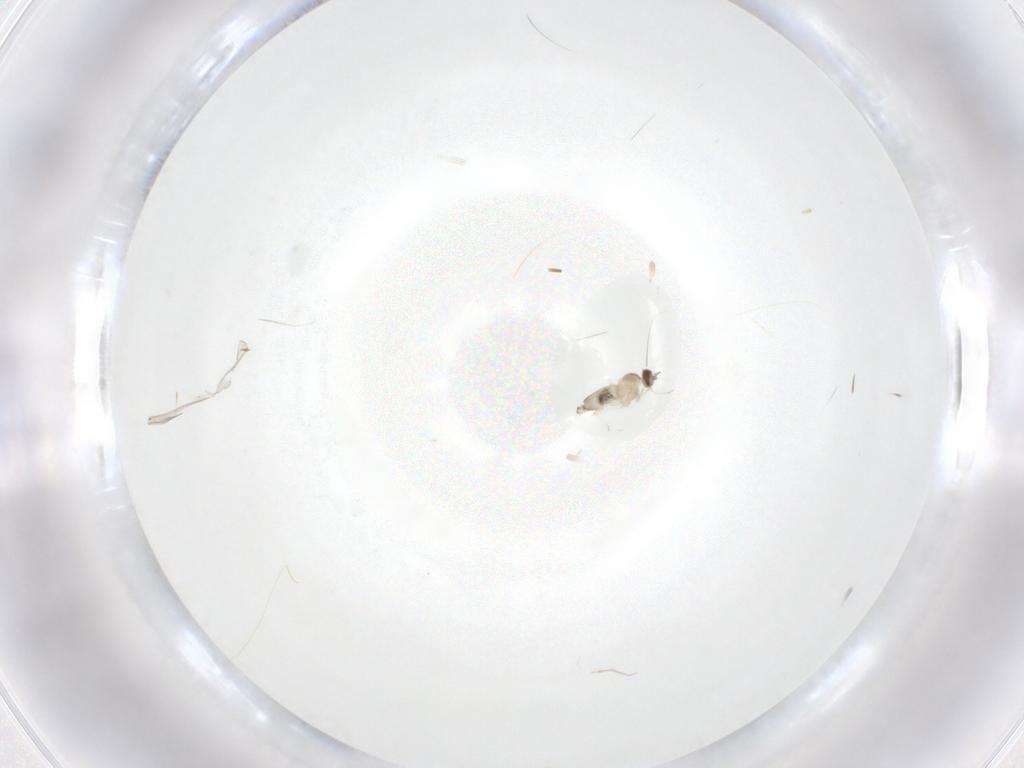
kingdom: Animalia
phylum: Arthropoda
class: Insecta
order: Diptera
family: Cecidomyiidae
